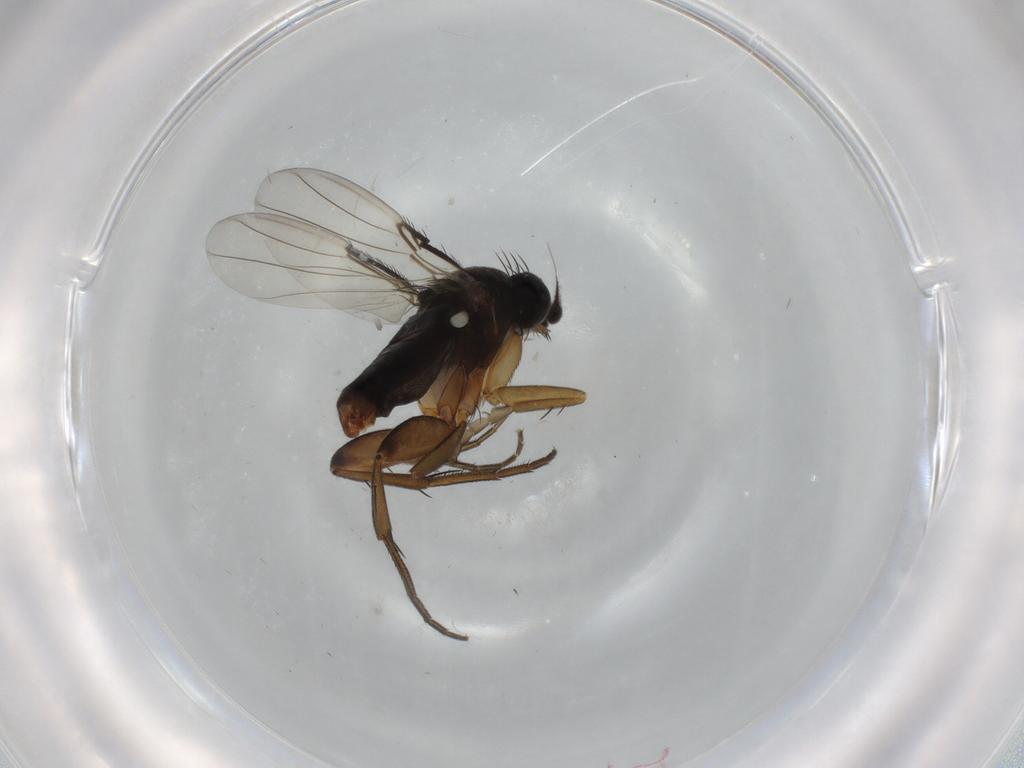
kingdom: Animalia
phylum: Arthropoda
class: Insecta
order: Diptera
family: Phoridae
